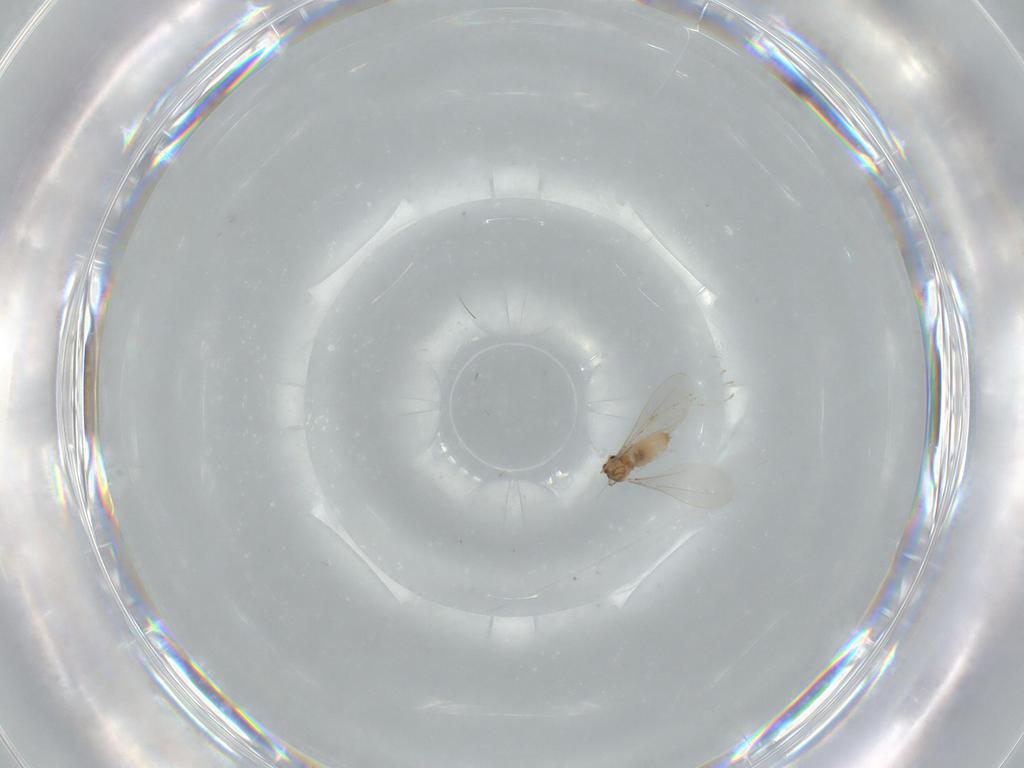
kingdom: Animalia
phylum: Arthropoda
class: Insecta
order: Diptera
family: Cecidomyiidae
